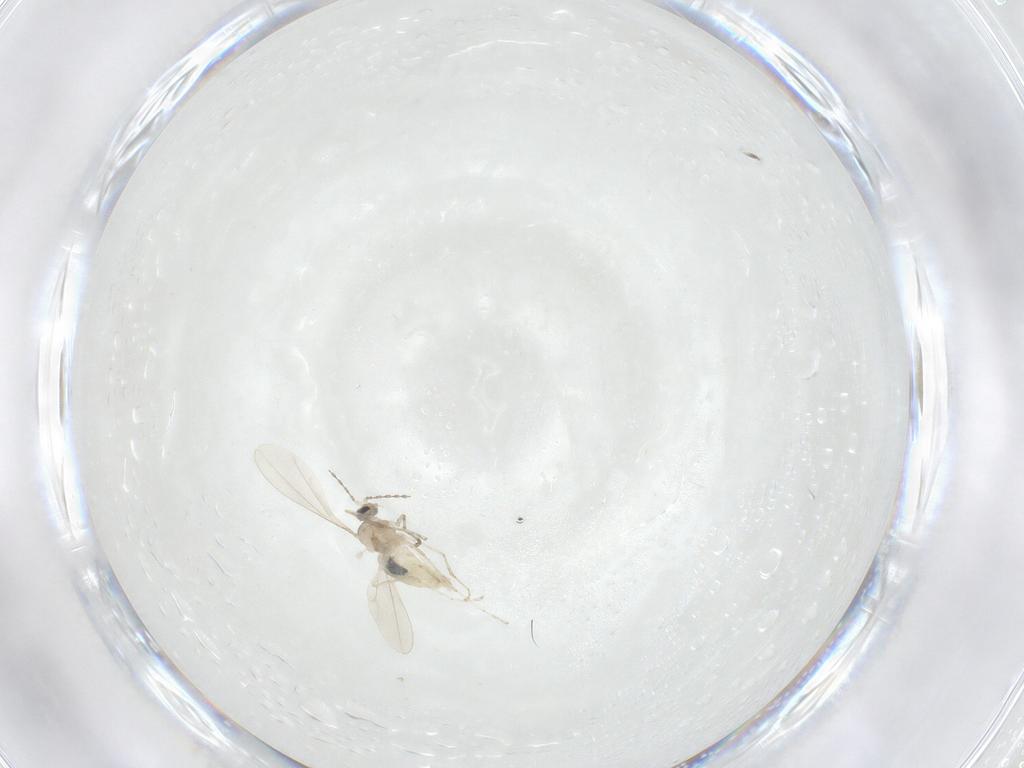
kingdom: Animalia
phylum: Arthropoda
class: Insecta
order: Diptera
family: Cecidomyiidae
